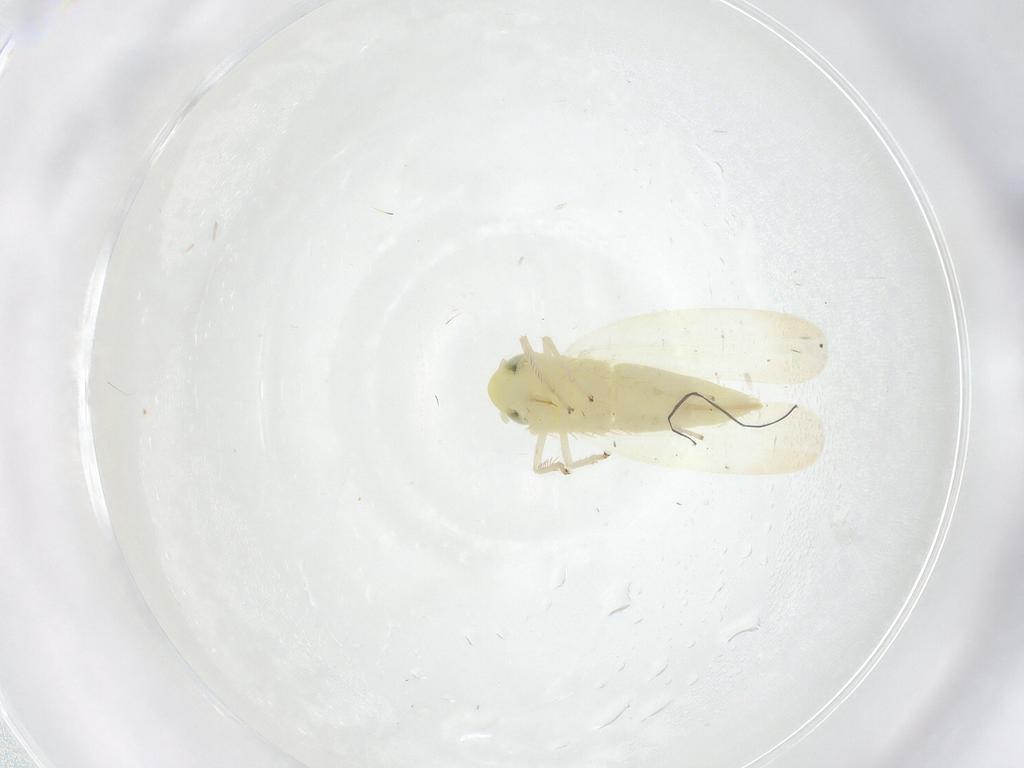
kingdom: Animalia
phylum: Arthropoda
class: Insecta
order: Hemiptera
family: Cicadellidae
